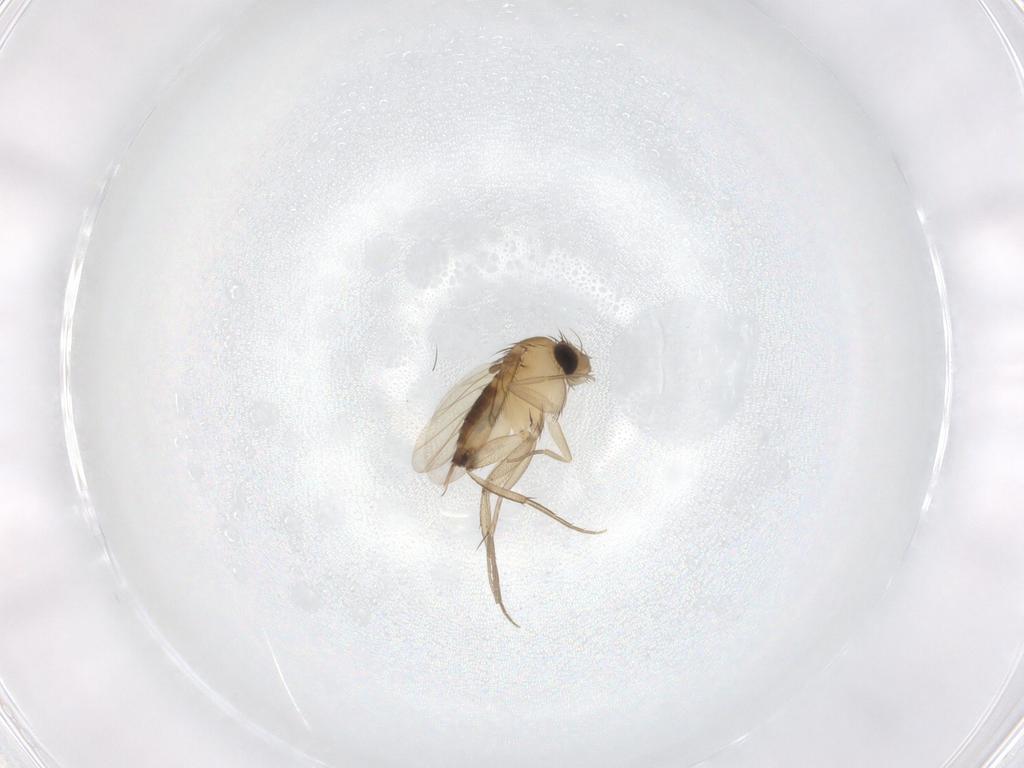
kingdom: Animalia
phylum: Arthropoda
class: Insecta
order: Diptera
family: Phoridae
